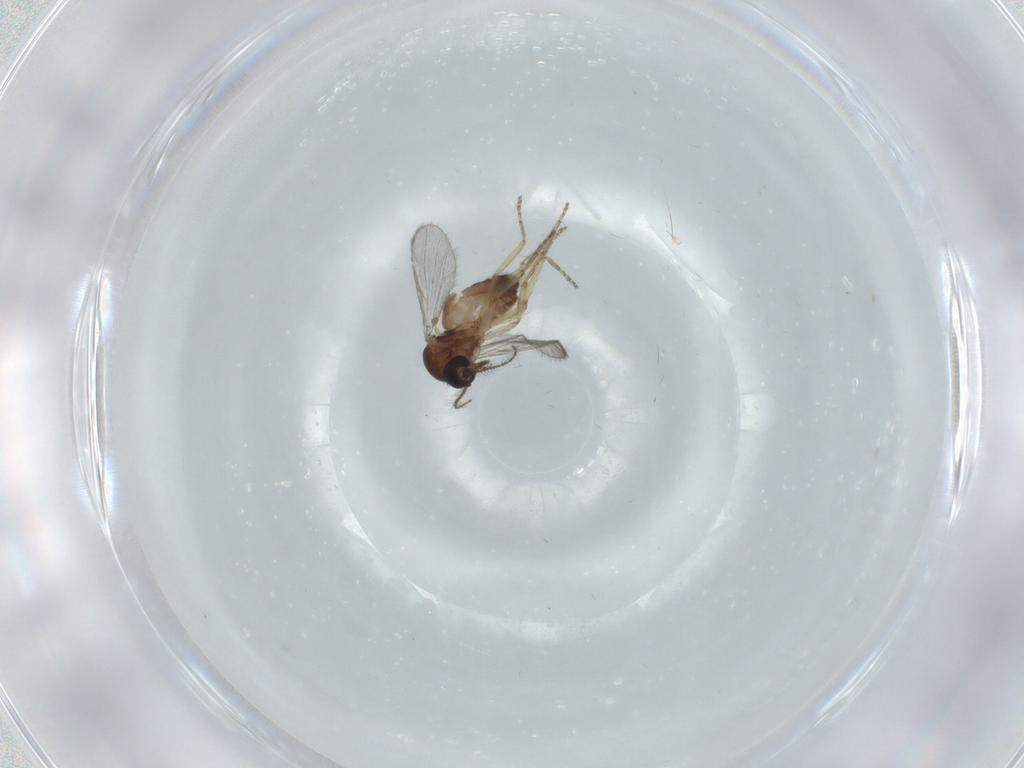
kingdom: Animalia
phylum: Arthropoda
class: Insecta
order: Diptera
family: Ceratopogonidae
